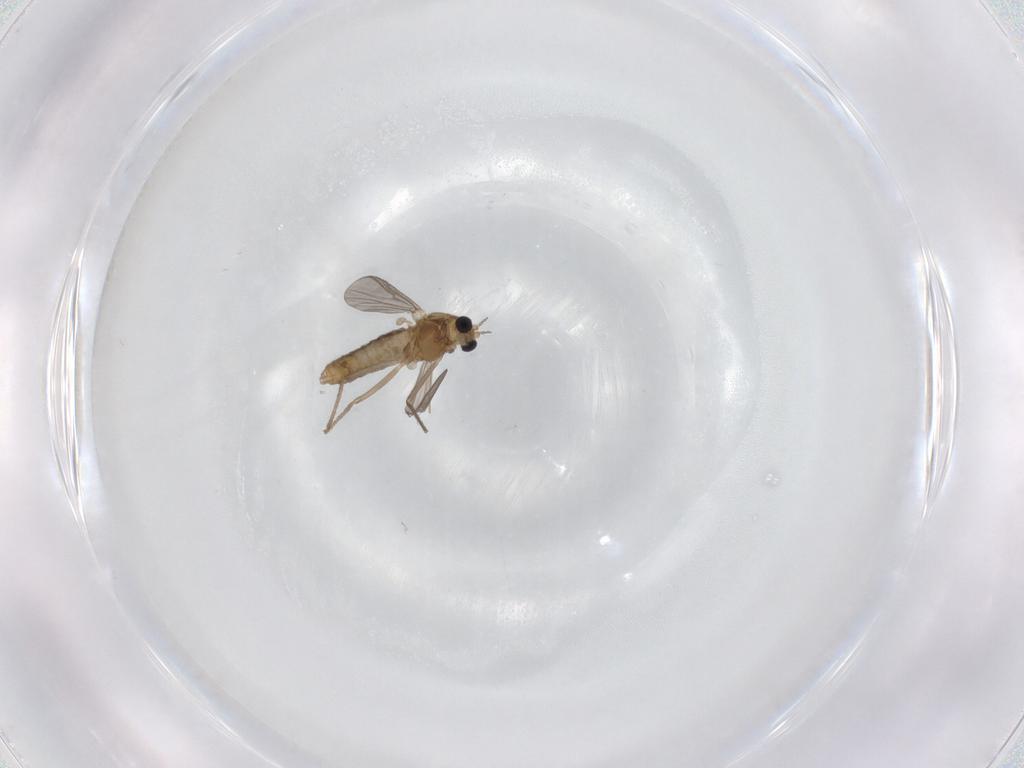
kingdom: Animalia
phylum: Arthropoda
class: Insecta
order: Diptera
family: Chironomidae
